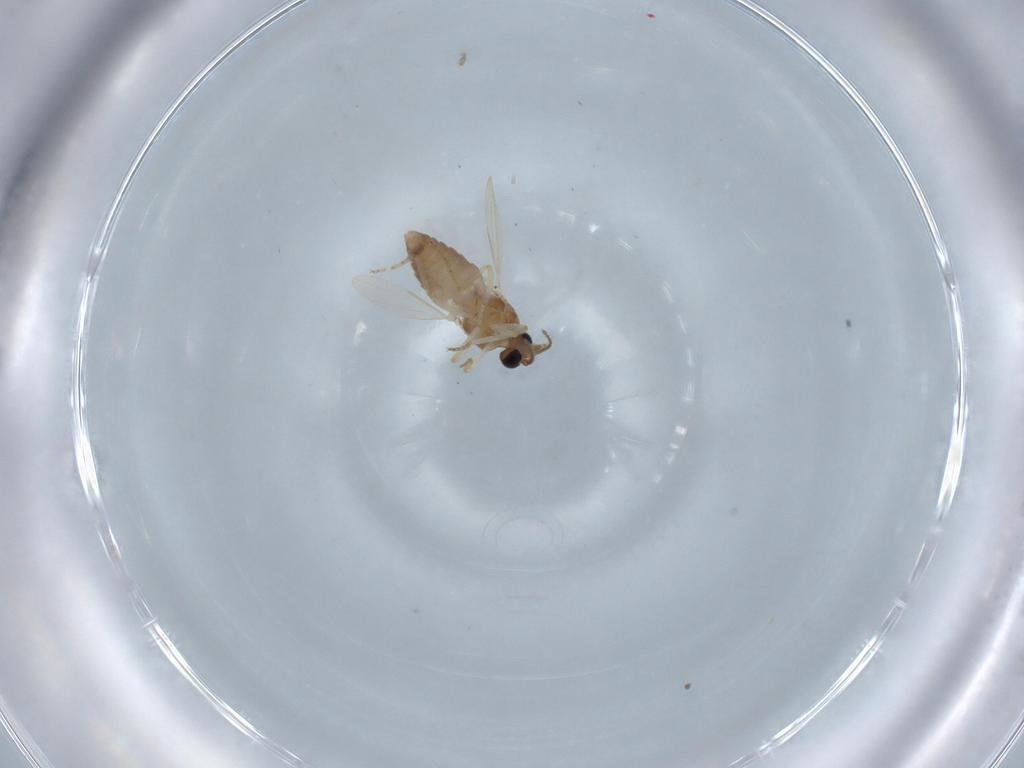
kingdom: Animalia
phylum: Arthropoda
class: Insecta
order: Diptera
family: Ceratopogonidae
